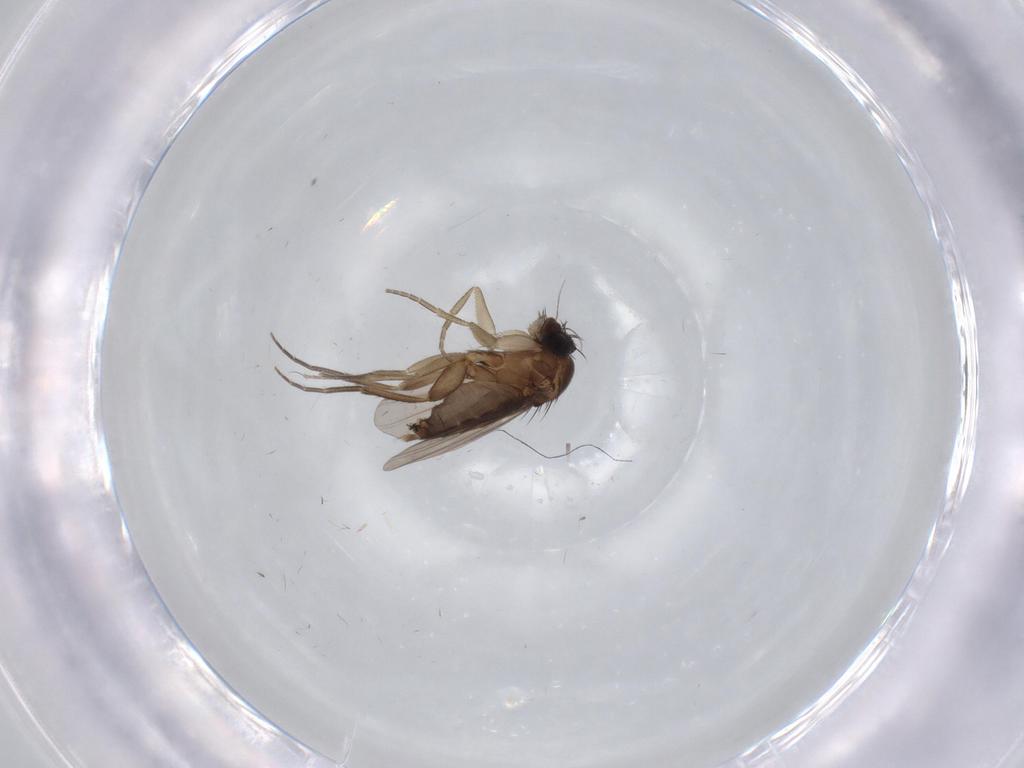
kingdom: Animalia
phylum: Arthropoda
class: Insecta
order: Diptera
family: Phoridae
